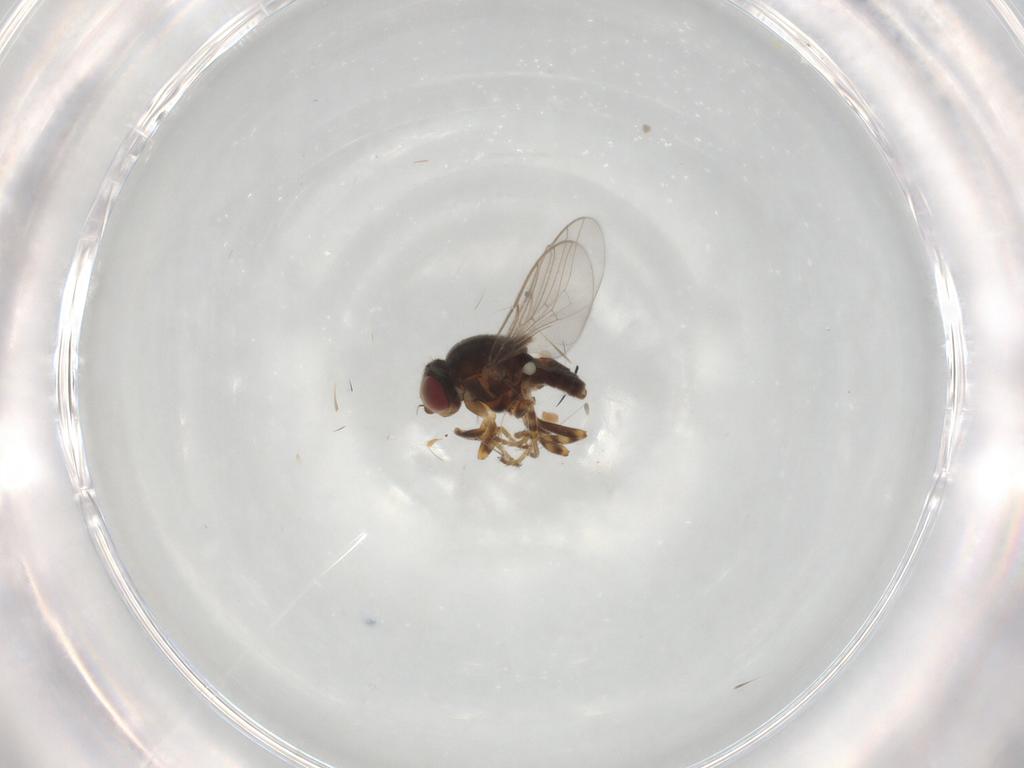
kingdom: Animalia
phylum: Arthropoda
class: Insecta
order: Diptera
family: Chloropidae
